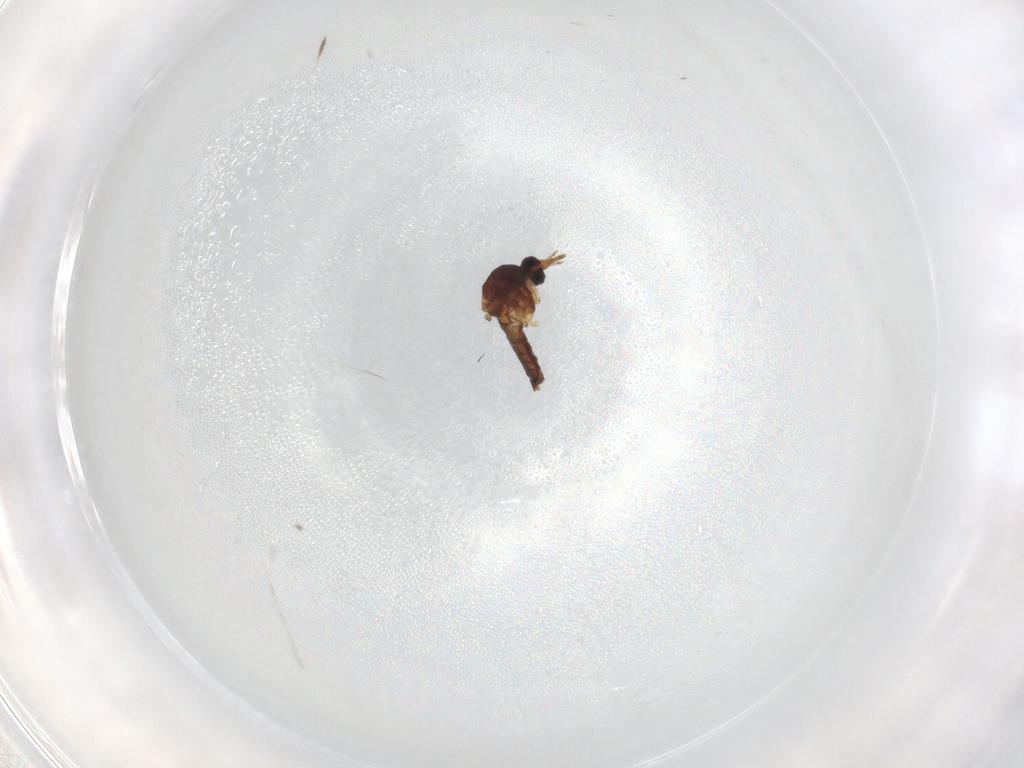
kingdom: Animalia
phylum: Arthropoda
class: Insecta
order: Diptera
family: Ceratopogonidae
